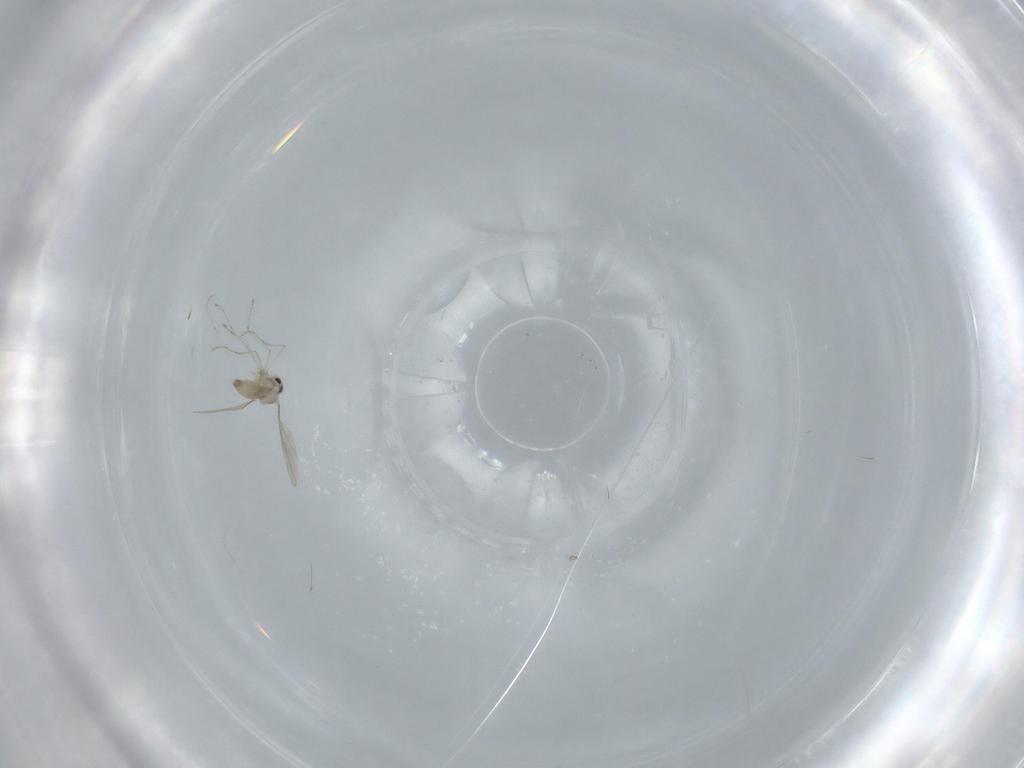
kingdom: Animalia
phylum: Arthropoda
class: Insecta
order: Diptera
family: Cecidomyiidae
